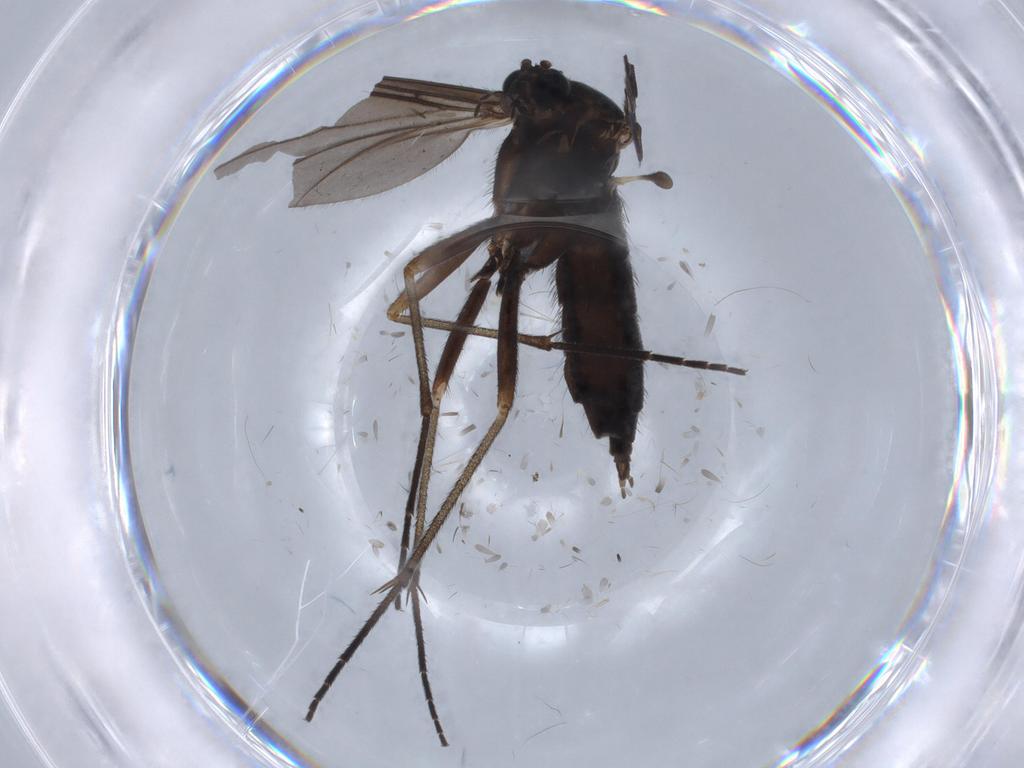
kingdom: Animalia
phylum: Arthropoda
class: Insecta
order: Diptera
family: Sciaridae
